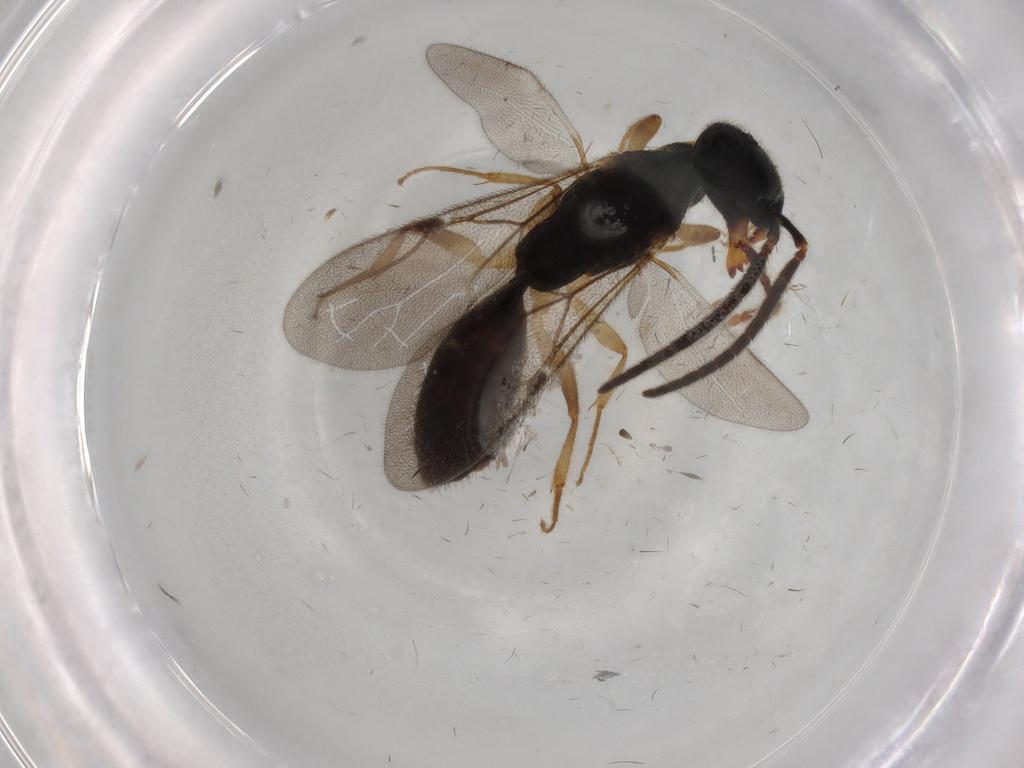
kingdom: Animalia
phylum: Arthropoda
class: Insecta
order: Hymenoptera
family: Bethylidae
